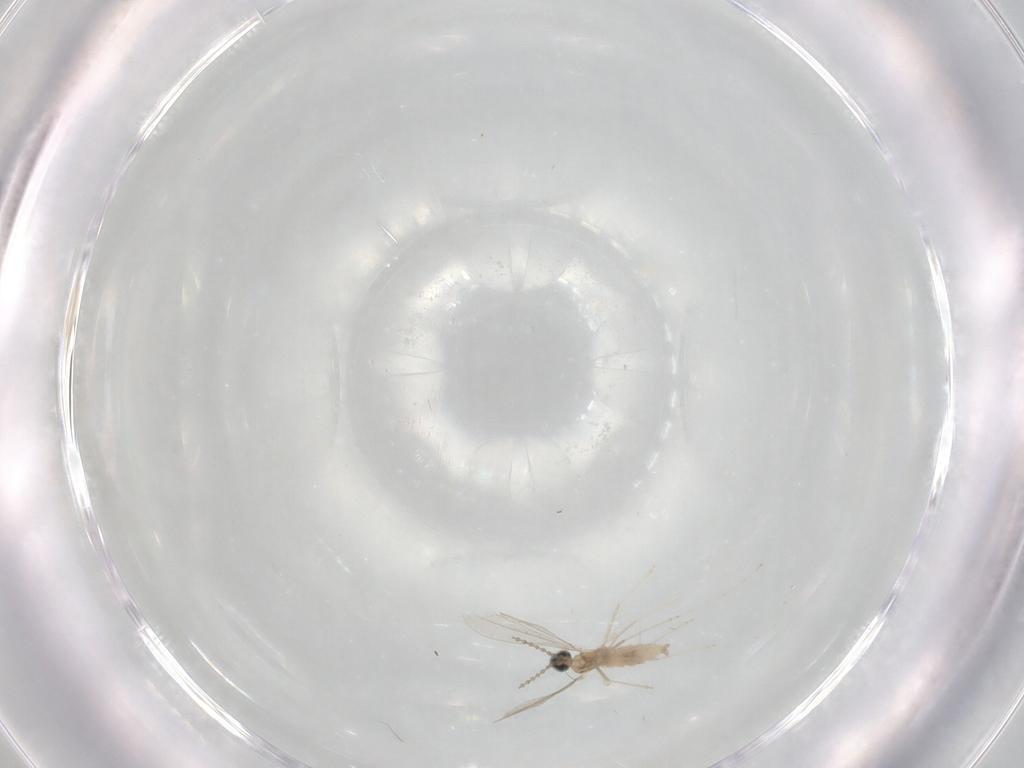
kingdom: Animalia
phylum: Arthropoda
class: Insecta
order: Diptera
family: Cecidomyiidae
